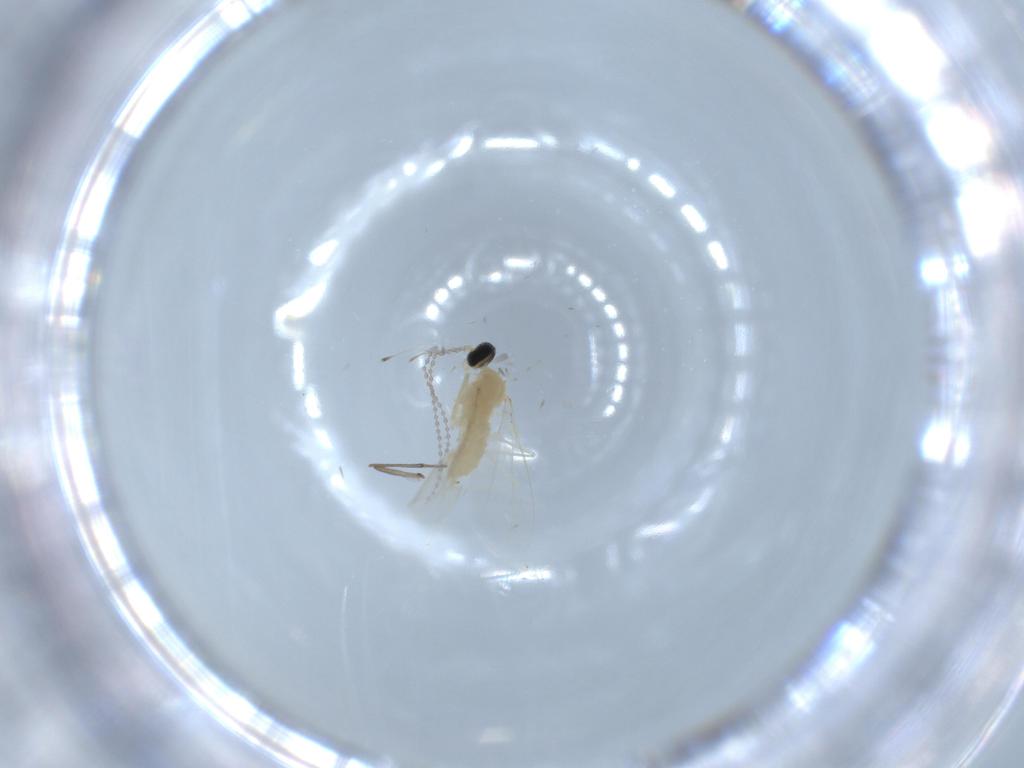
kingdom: Animalia
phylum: Arthropoda
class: Insecta
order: Diptera
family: Cecidomyiidae
